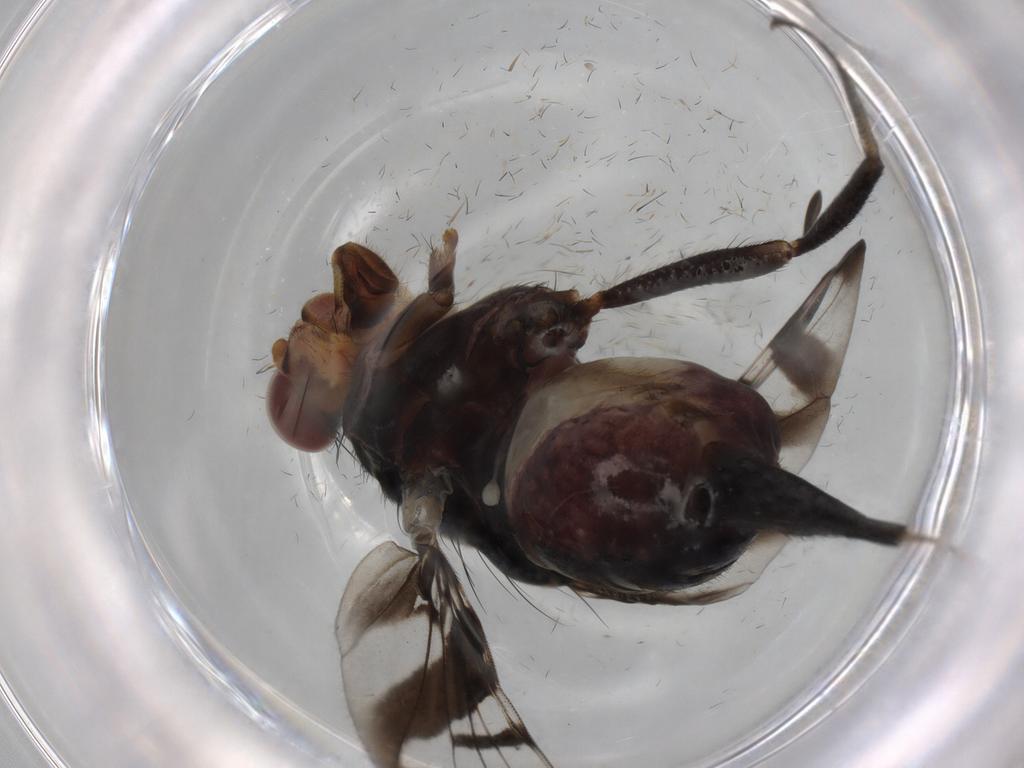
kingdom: Animalia
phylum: Arthropoda
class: Insecta
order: Diptera
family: Ulidiidae
